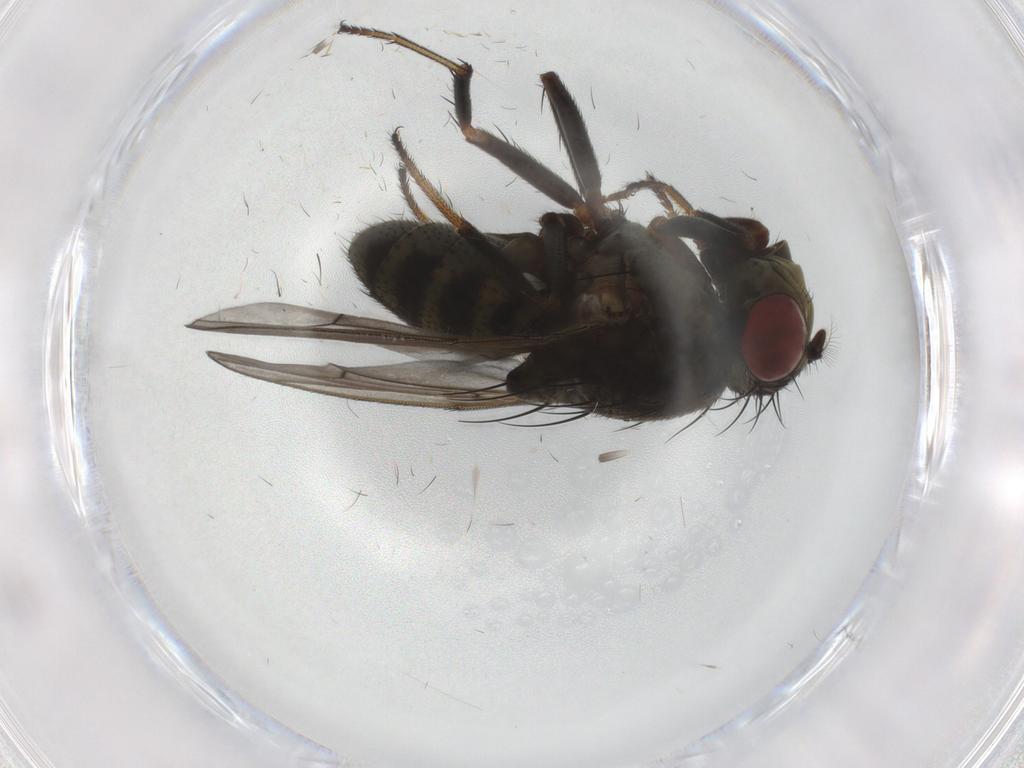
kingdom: Animalia
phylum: Arthropoda
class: Insecta
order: Diptera
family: Ephydridae
